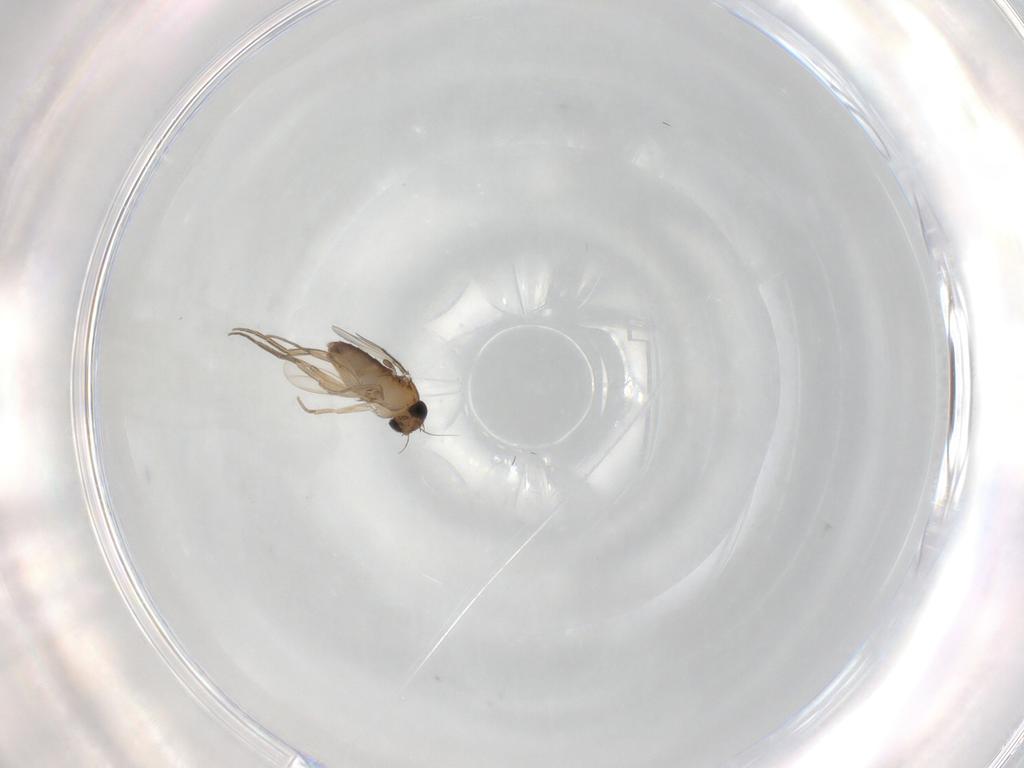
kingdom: Animalia
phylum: Arthropoda
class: Insecta
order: Diptera
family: Phoridae
